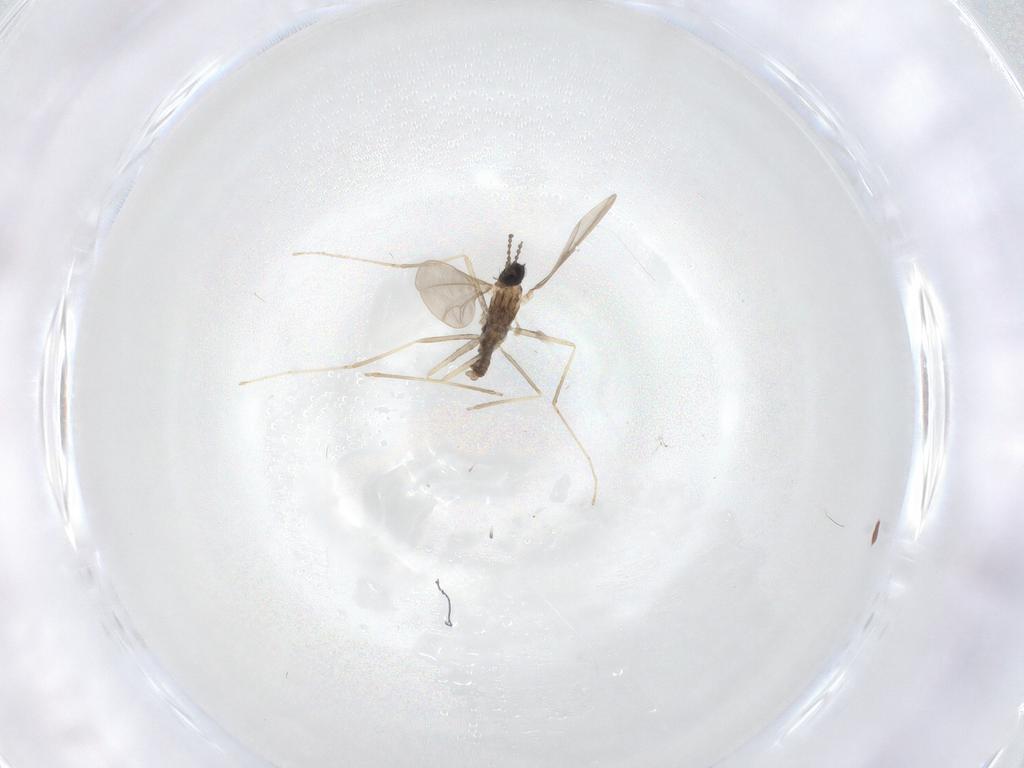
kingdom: Animalia
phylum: Arthropoda
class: Insecta
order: Diptera
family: Cecidomyiidae
